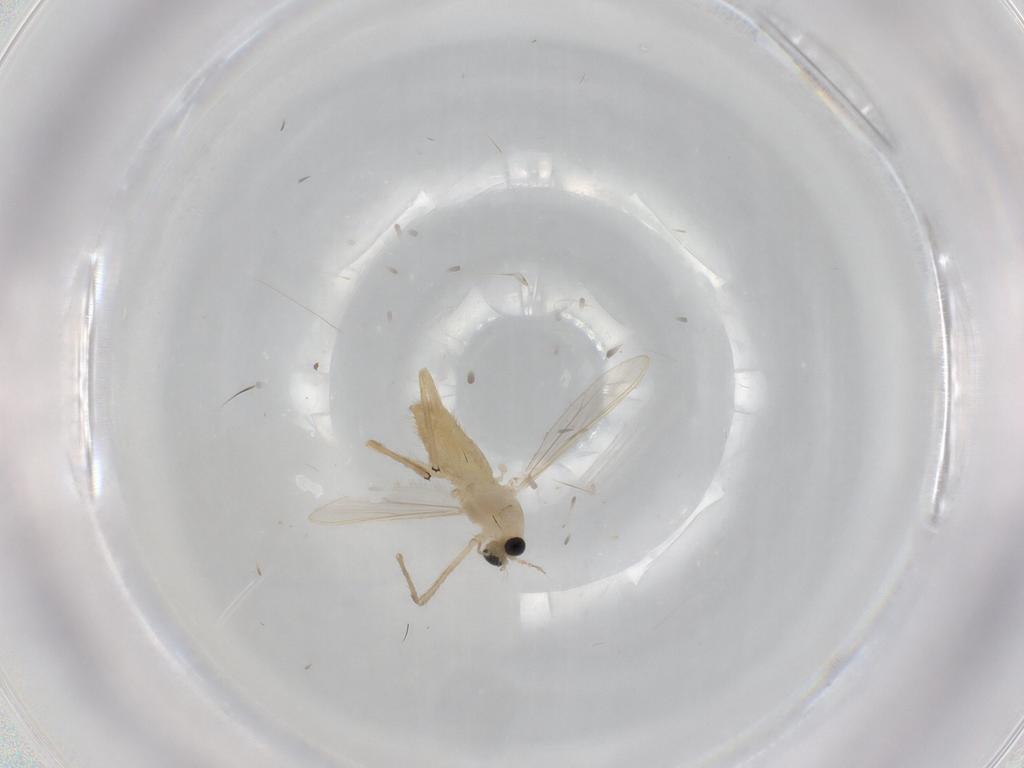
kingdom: Animalia
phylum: Arthropoda
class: Insecta
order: Diptera
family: Chironomidae
